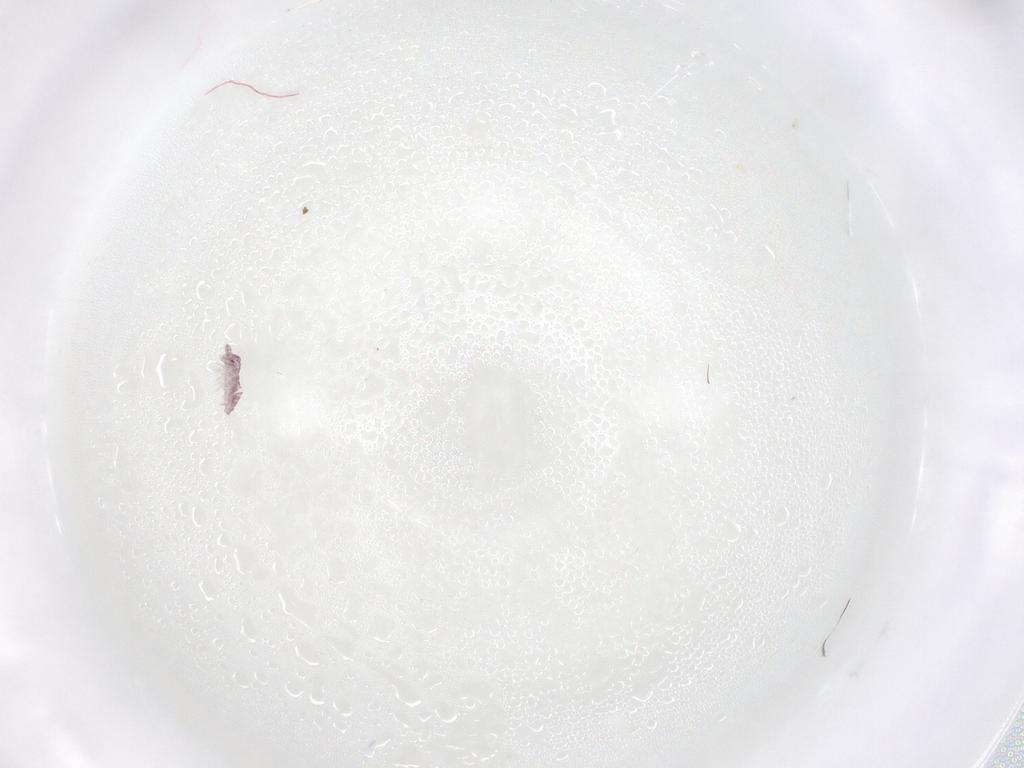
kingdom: Animalia
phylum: Arthropoda
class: Collembola
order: Poduromorpha
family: Hypogastruridae
